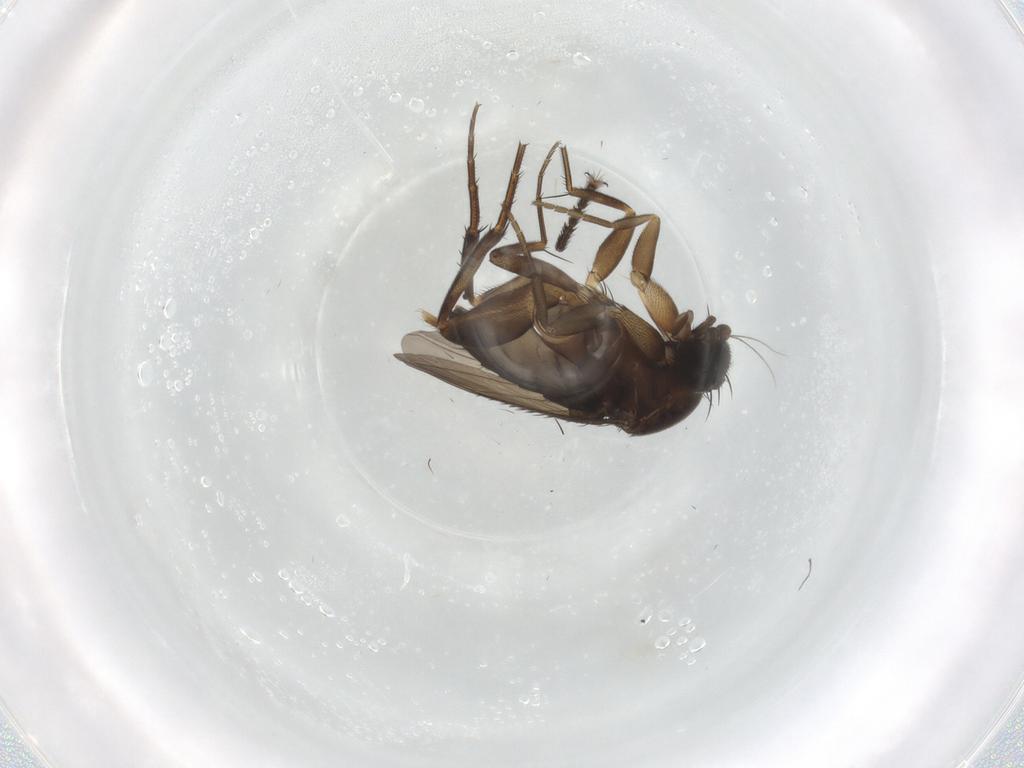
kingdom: Animalia
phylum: Arthropoda
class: Insecta
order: Diptera
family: Phoridae
